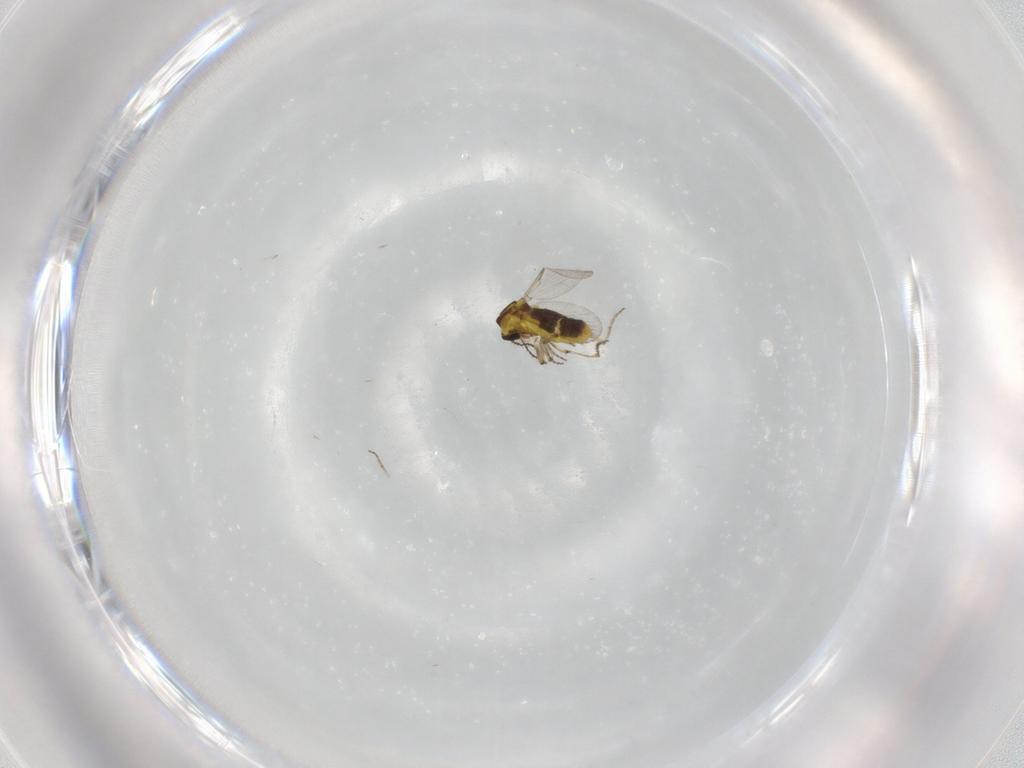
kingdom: Animalia
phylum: Arthropoda
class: Insecta
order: Diptera
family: Ceratopogonidae
